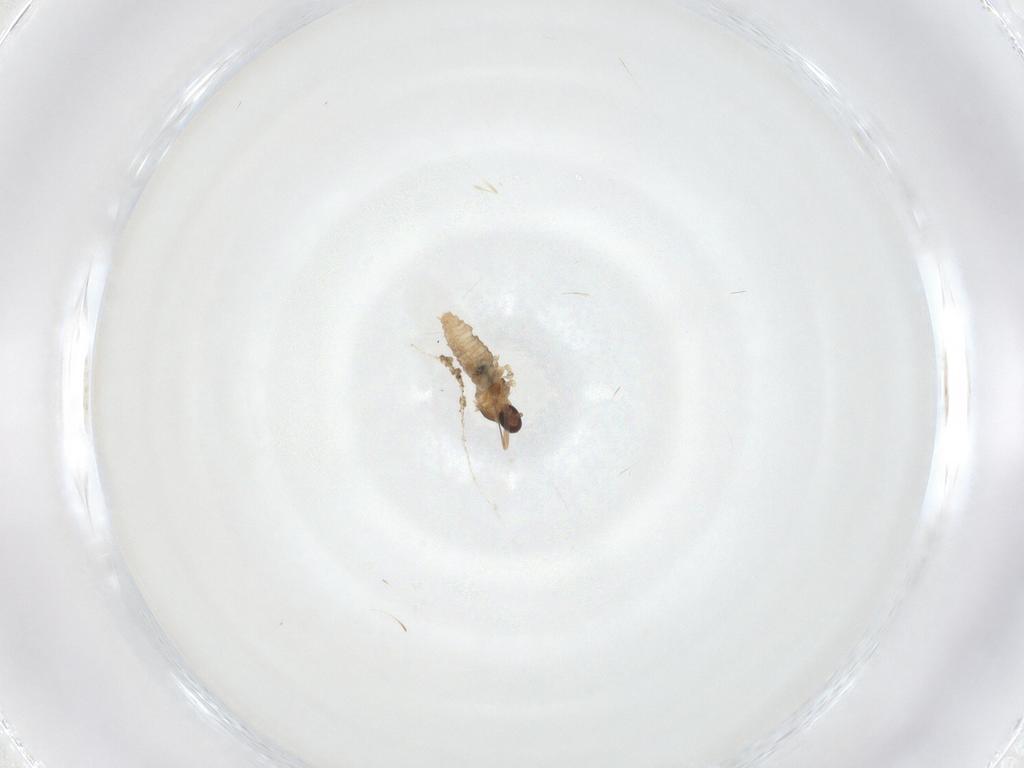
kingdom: Animalia
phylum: Arthropoda
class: Insecta
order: Diptera
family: Cecidomyiidae
